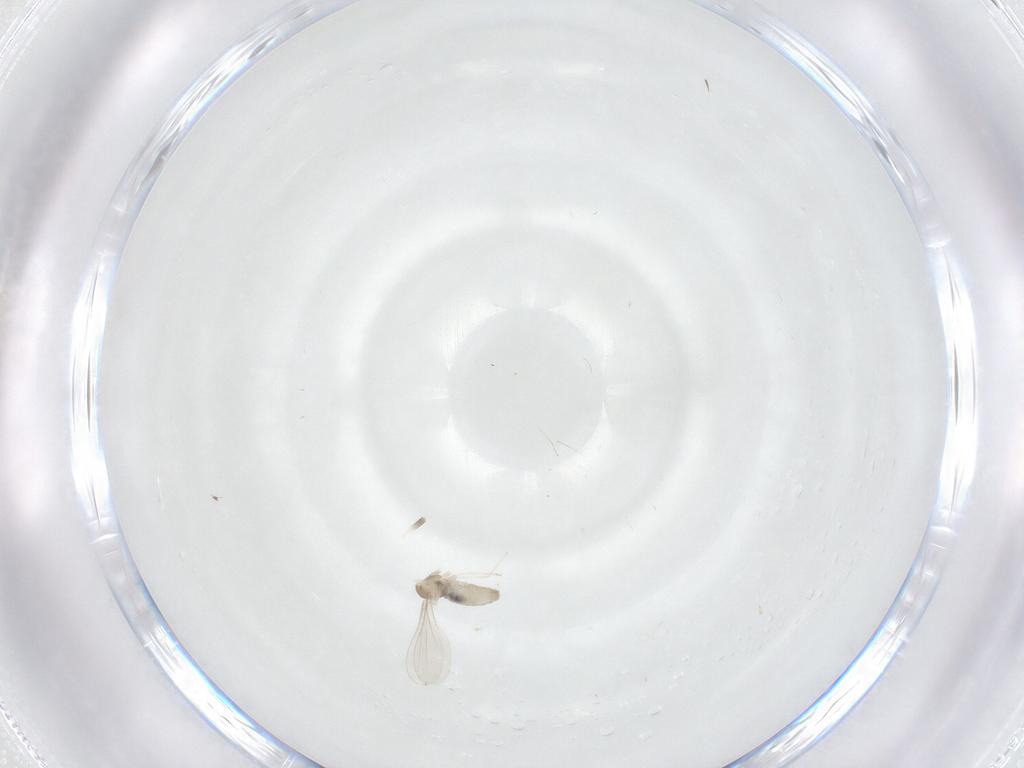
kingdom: Animalia
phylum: Arthropoda
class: Insecta
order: Diptera
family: Cecidomyiidae
